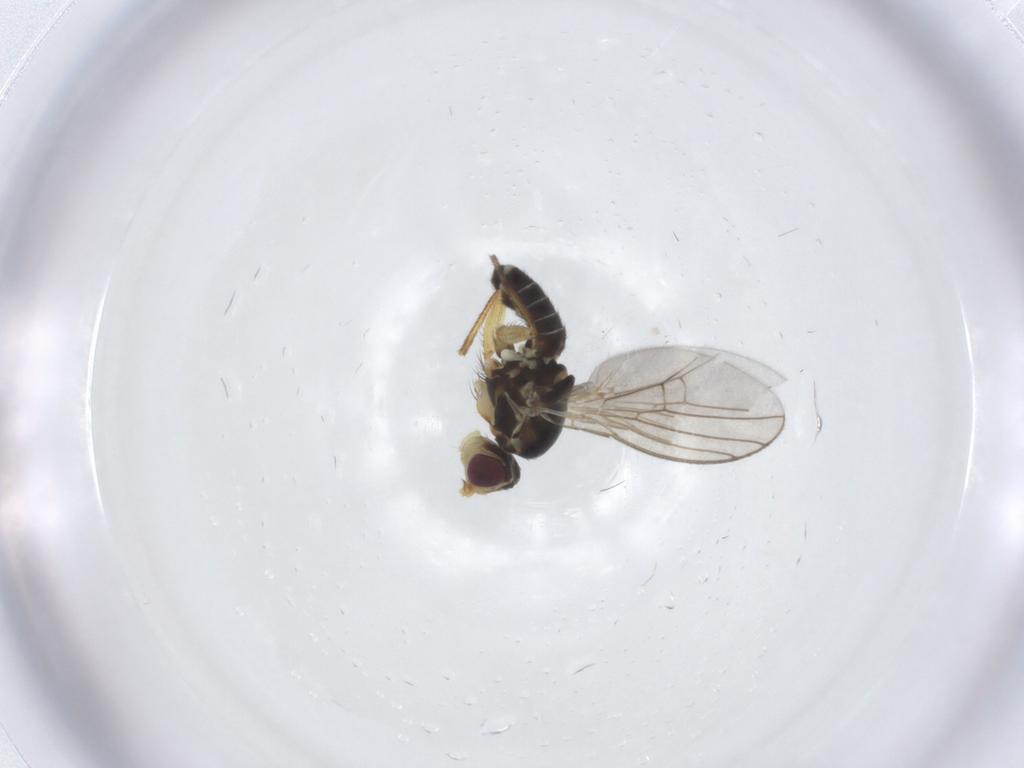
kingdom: Animalia
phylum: Arthropoda
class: Insecta
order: Diptera
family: Agromyzidae
